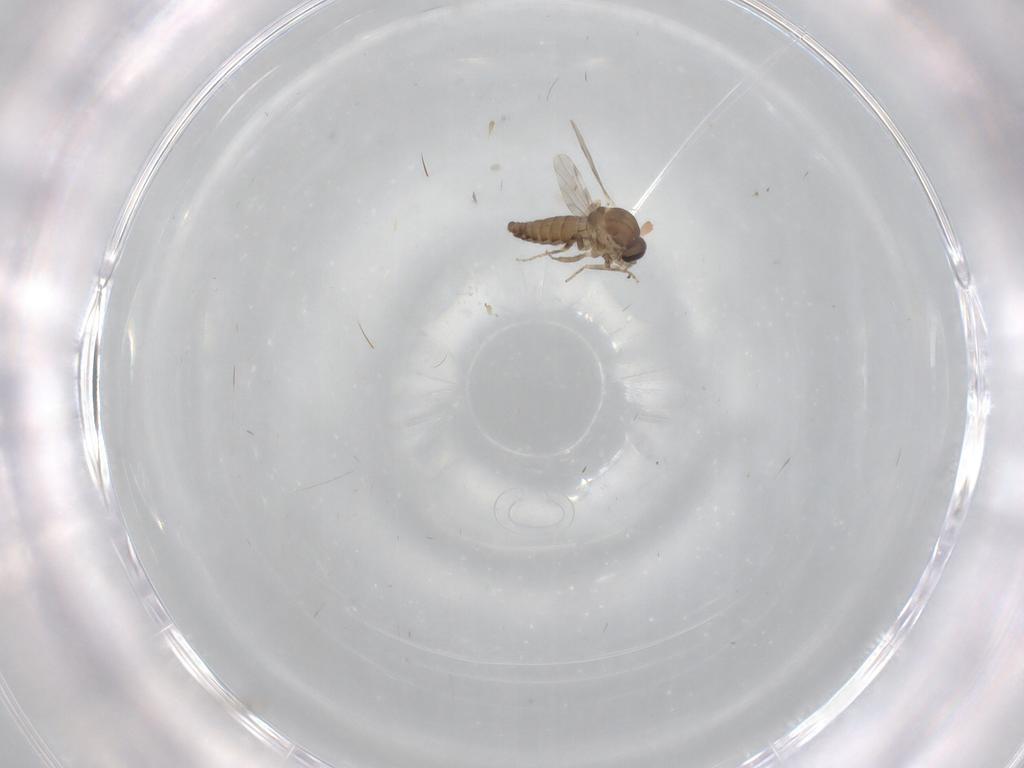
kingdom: Animalia
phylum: Arthropoda
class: Insecta
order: Diptera
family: Ceratopogonidae
